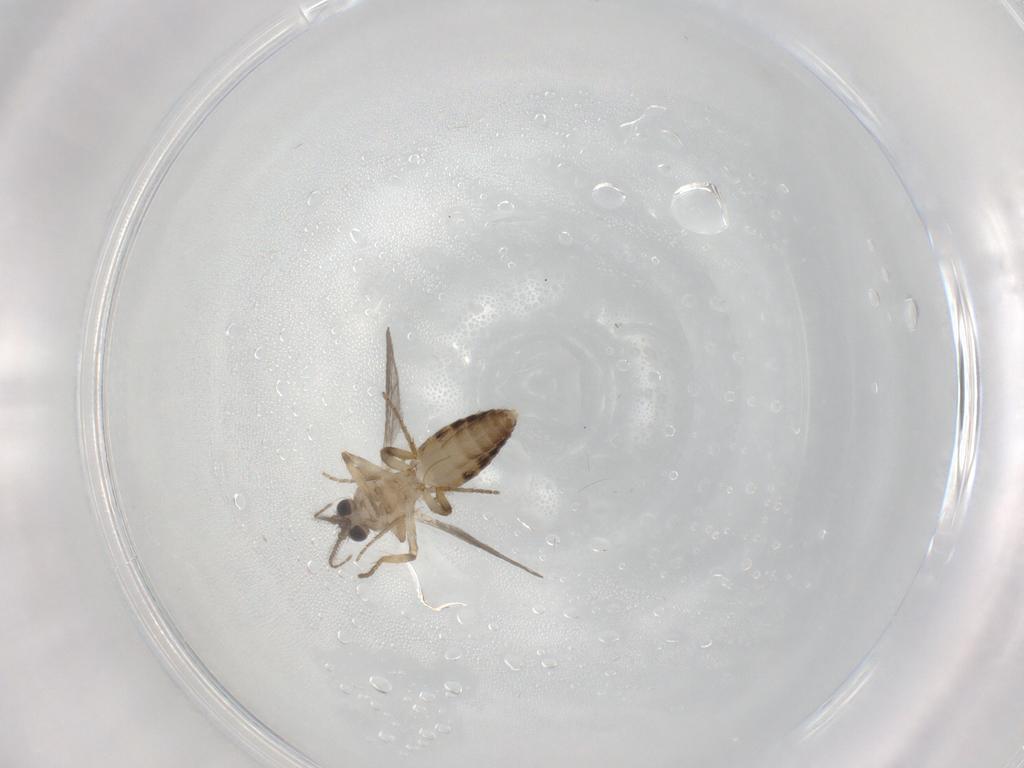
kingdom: Animalia
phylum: Arthropoda
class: Insecta
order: Diptera
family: Ceratopogonidae
